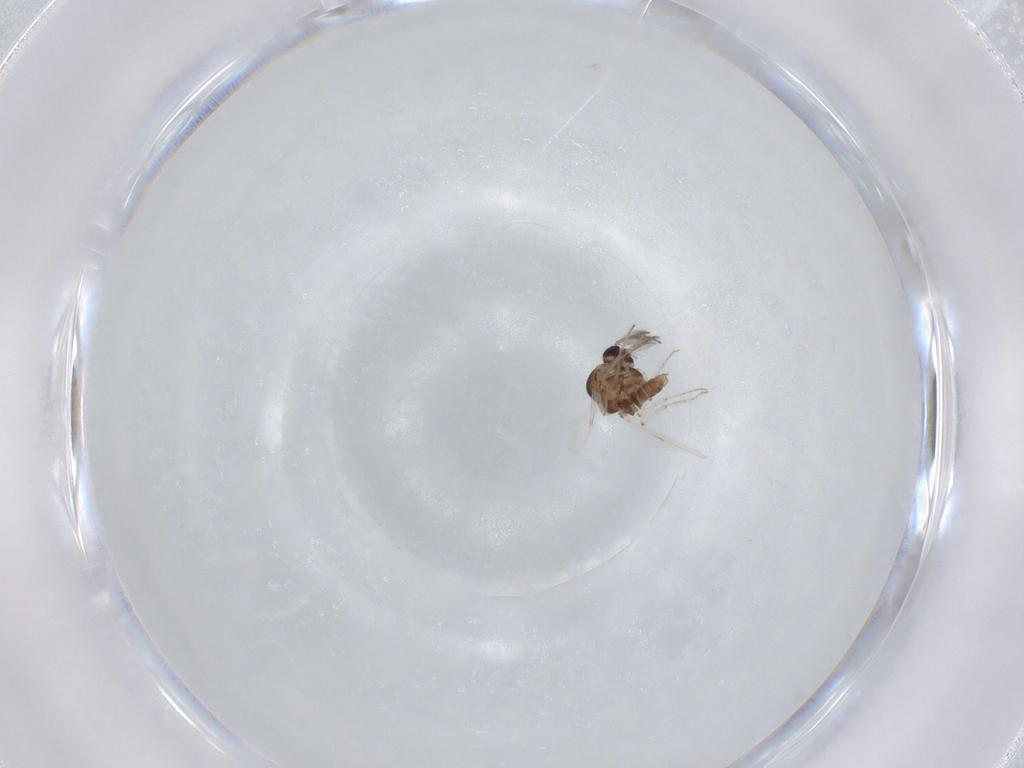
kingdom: Animalia
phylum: Arthropoda
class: Insecta
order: Diptera
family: Ceratopogonidae
